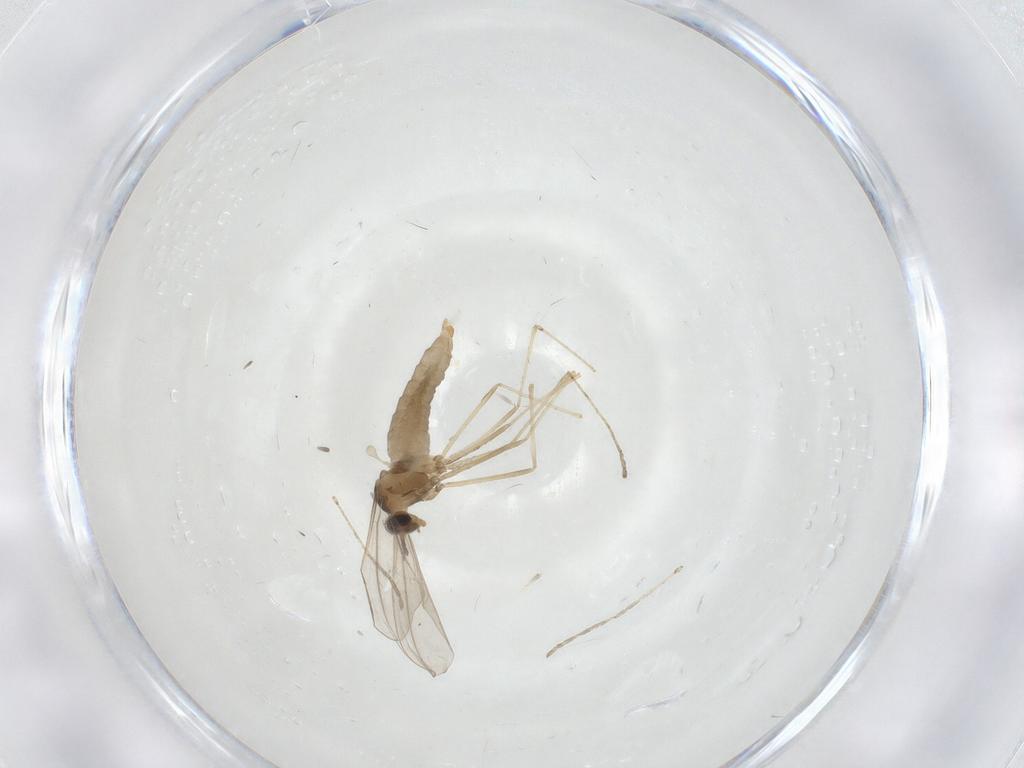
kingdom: Animalia
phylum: Arthropoda
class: Insecta
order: Diptera
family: Cecidomyiidae
